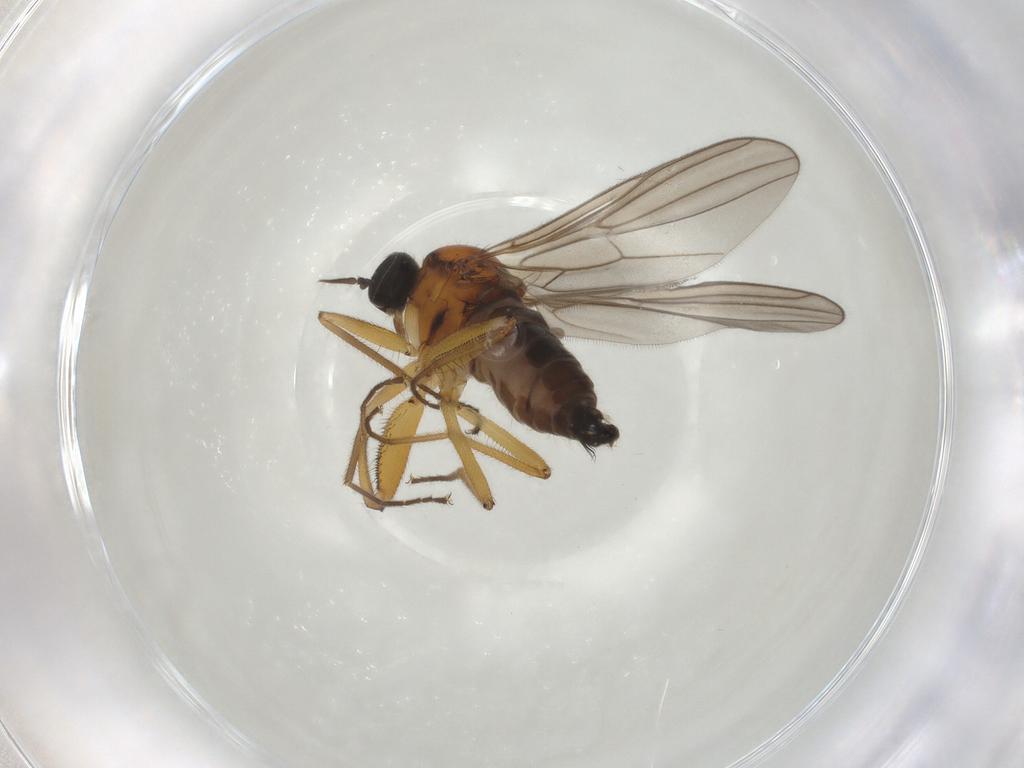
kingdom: Animalia
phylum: Arthropoda
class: Insecta
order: Diptera
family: Hybotidae
